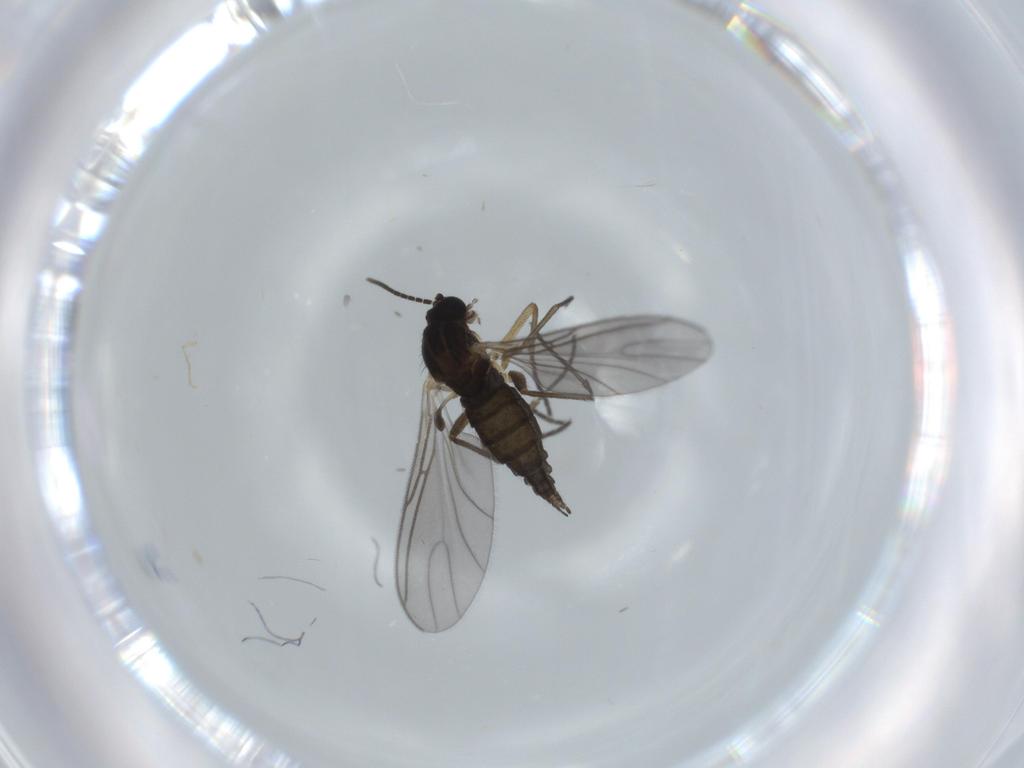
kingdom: Animalia
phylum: Arthropoda
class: Insecta
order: Diptera
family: Sciaridae
